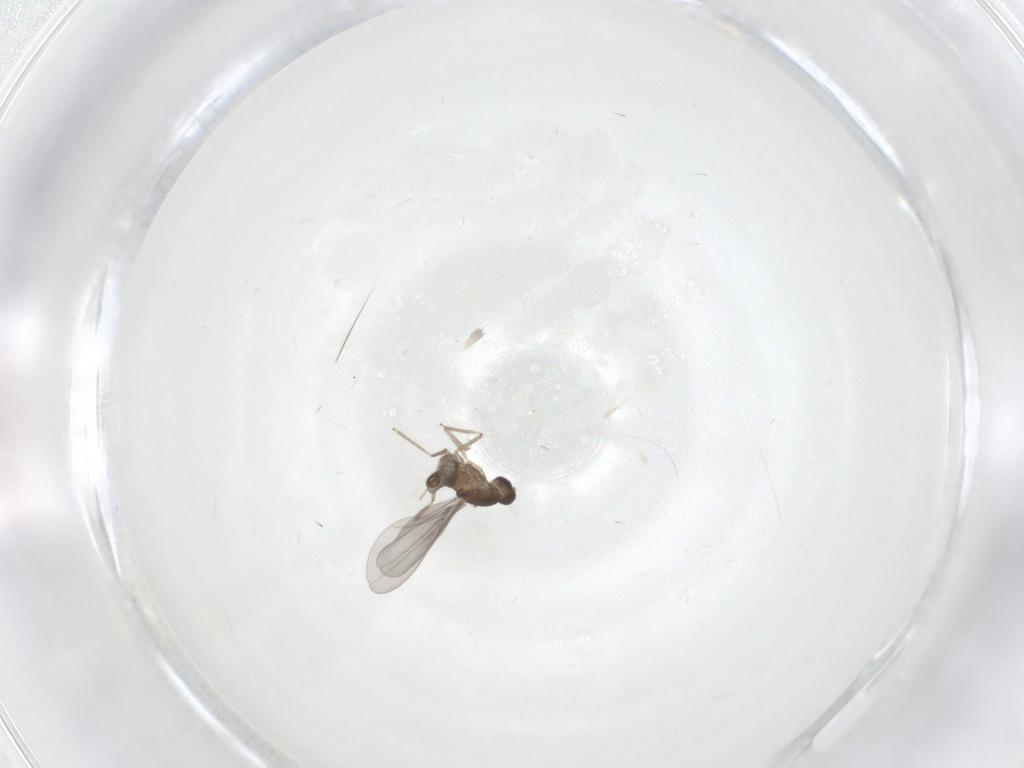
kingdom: Animalia
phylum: Arthropoda
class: Insecta
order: Diptera
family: Cecidomyiidae
